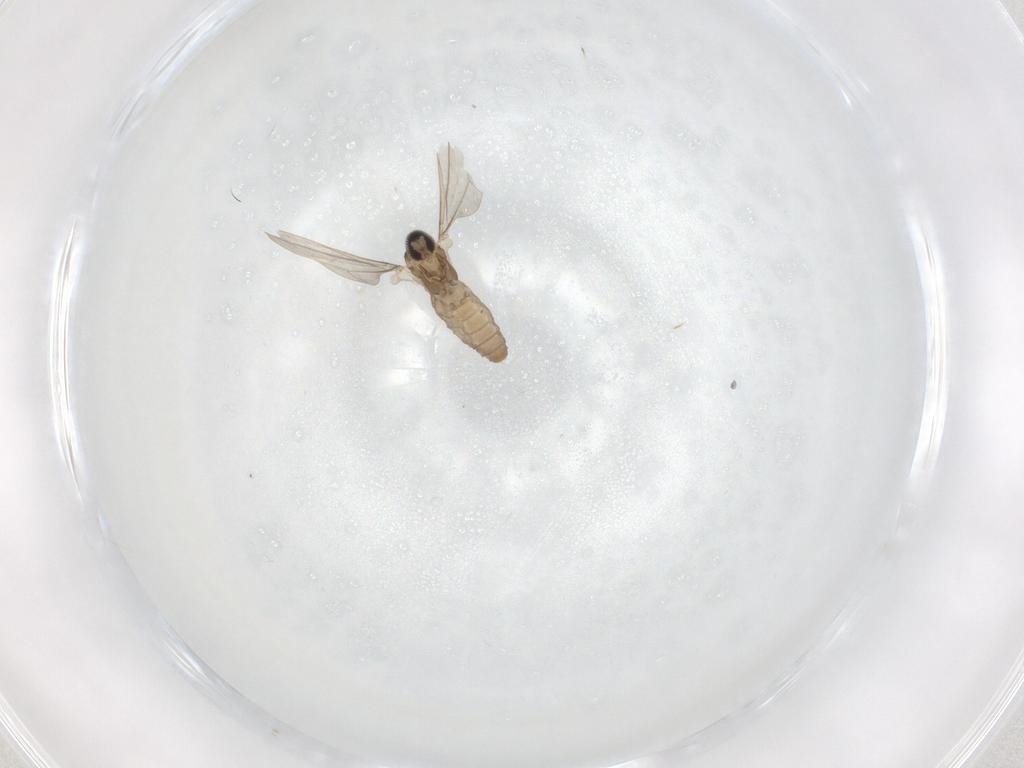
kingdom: Animalia
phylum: Arthropoda
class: Insecta
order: Diptera
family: Cecidomyiidae
